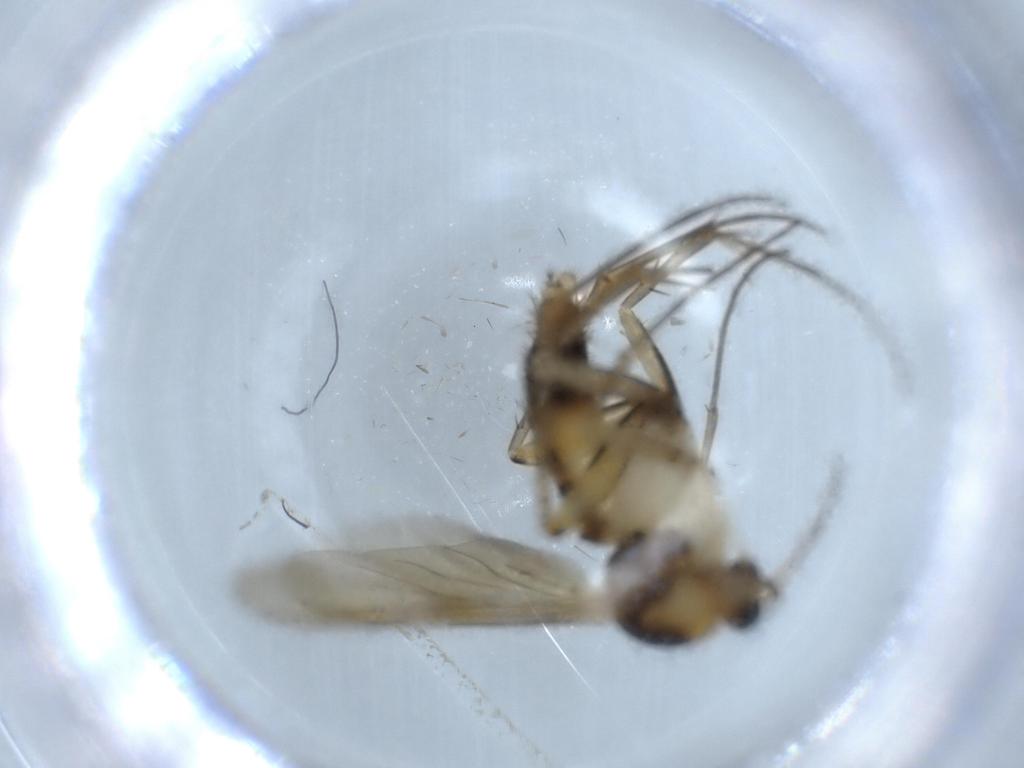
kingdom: Animalia
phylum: Arthropoda
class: Insecta
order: Diptera
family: Mycetophilidae
